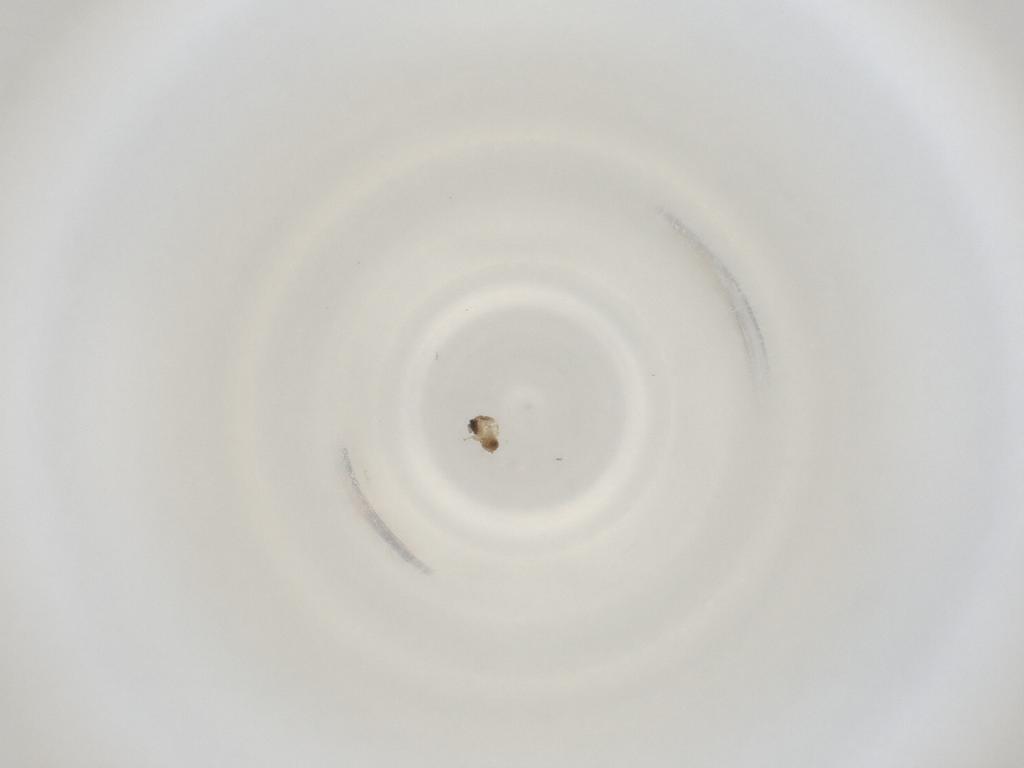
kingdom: Animalia
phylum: Arthropoda
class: Insecta
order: Diptera
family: Cecidomyiidae
